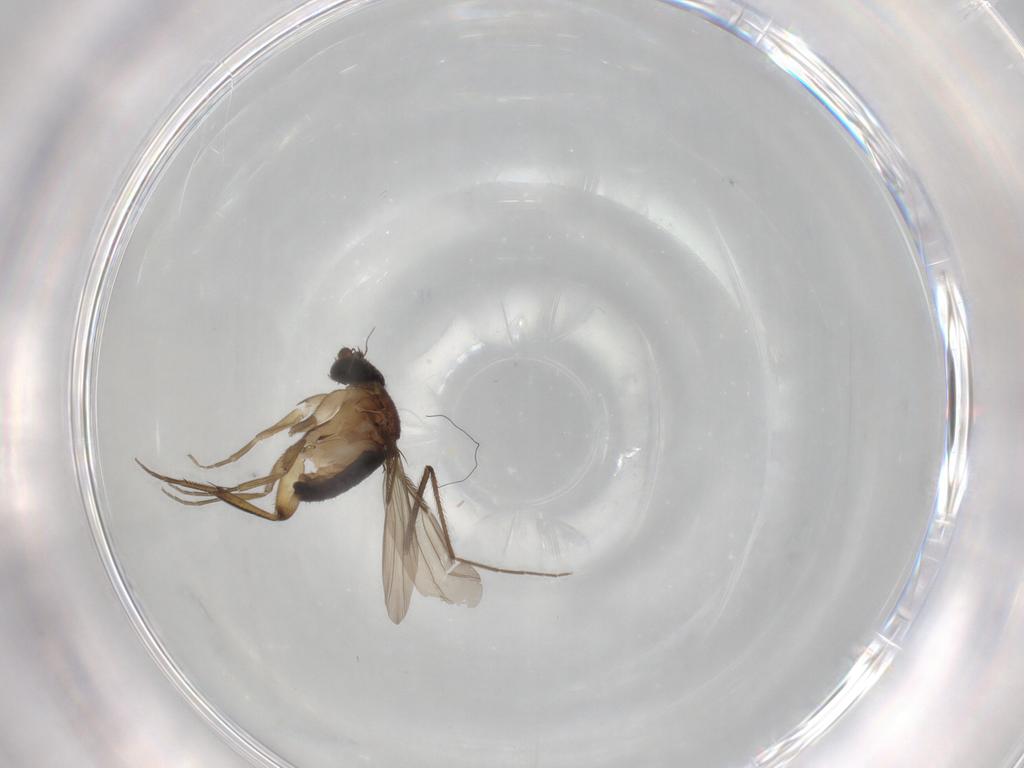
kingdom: Animalia
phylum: Arthropoda
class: Insecta
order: Diptera
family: Phoridae
